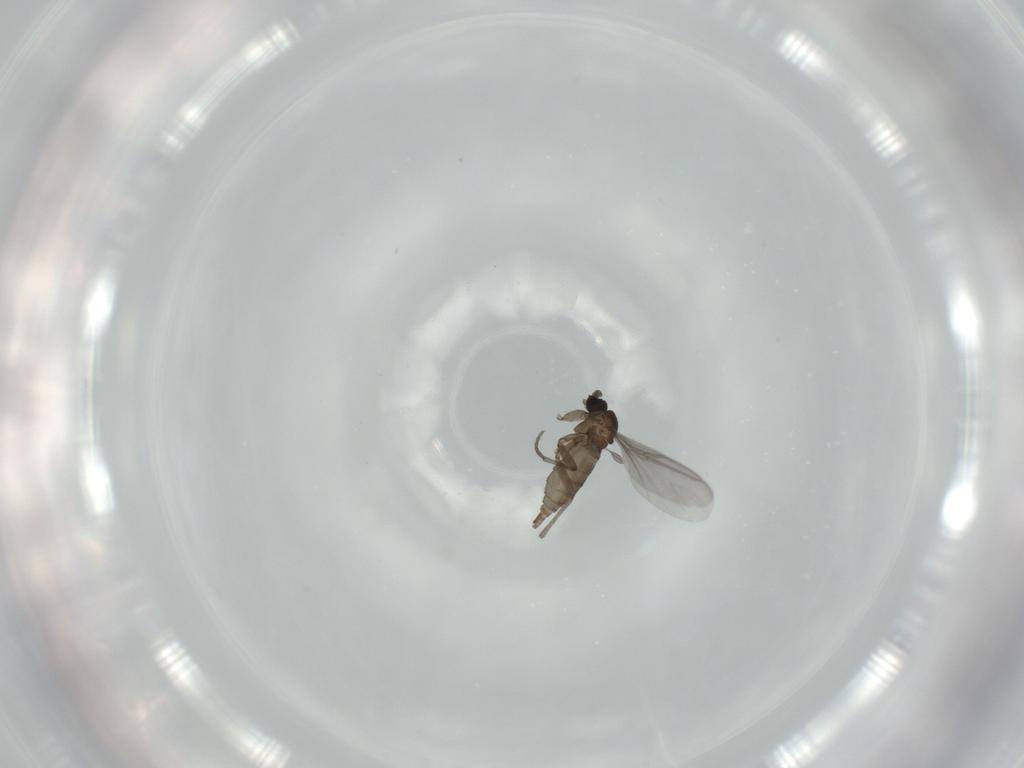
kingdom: Animalia
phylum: Arthropoda
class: Insecta
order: Diptera
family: Sciaridae
